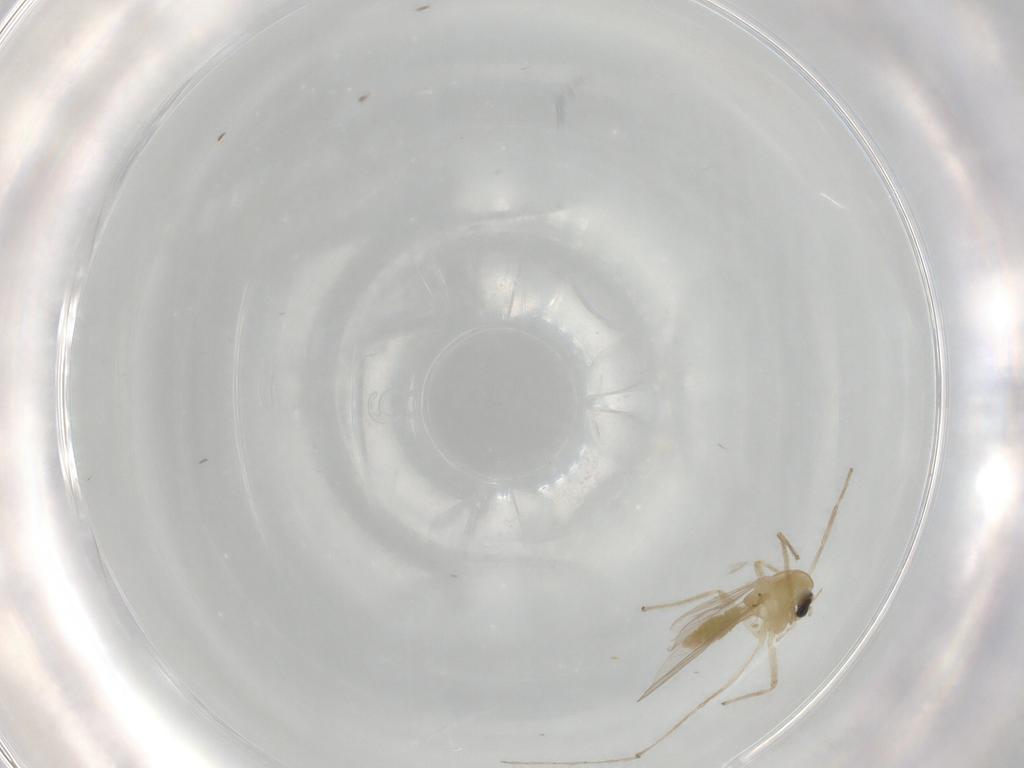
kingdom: Animalia
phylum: Arthropoda
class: Insecta
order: Diptera
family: Chironomidae
